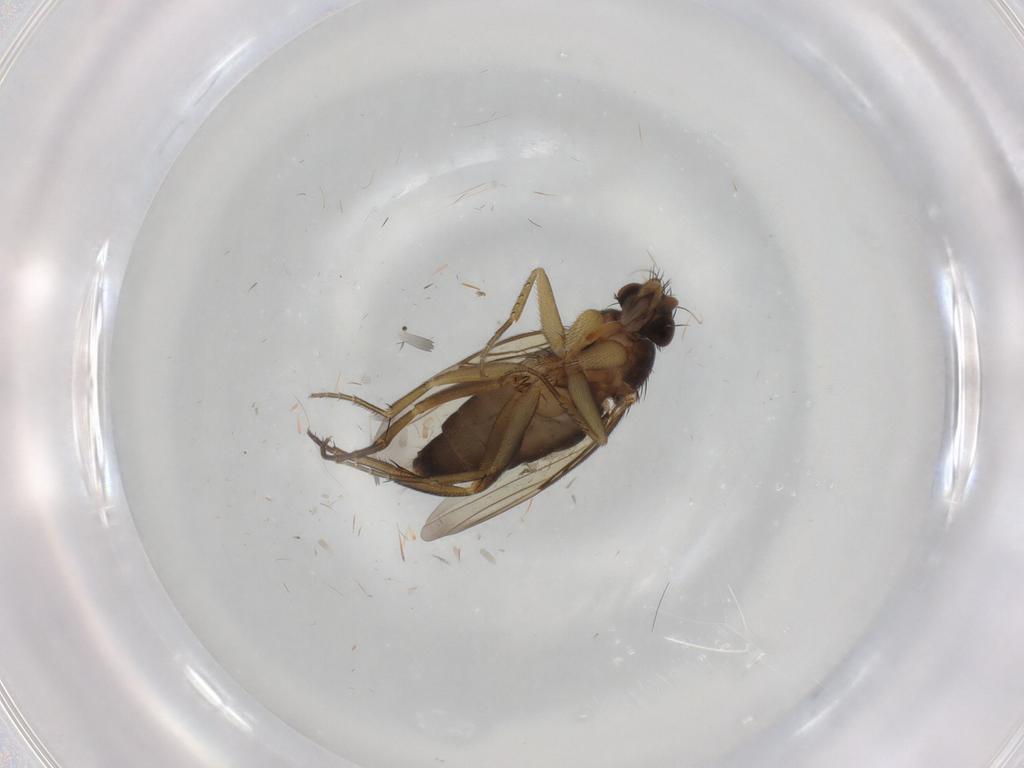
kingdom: Animalia
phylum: Arthropoda
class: Insecta
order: Diptera
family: Phoridae
